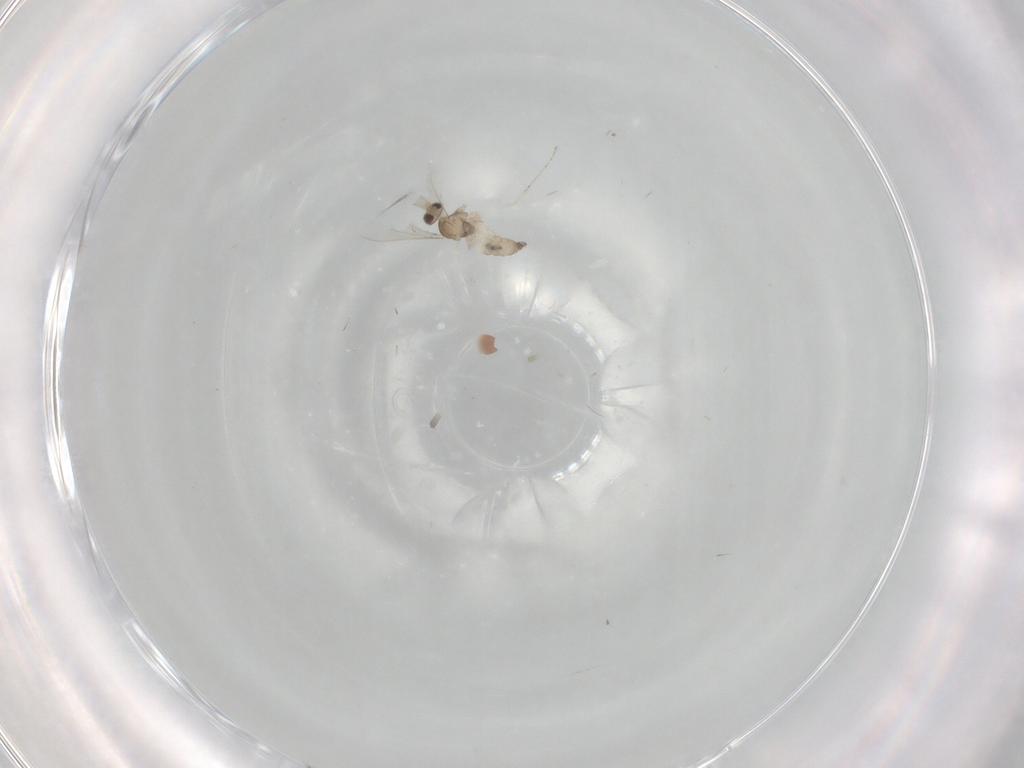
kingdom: Animalia
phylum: Arthropoda
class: Insecta
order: Diptera
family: Cecidomyiidae
